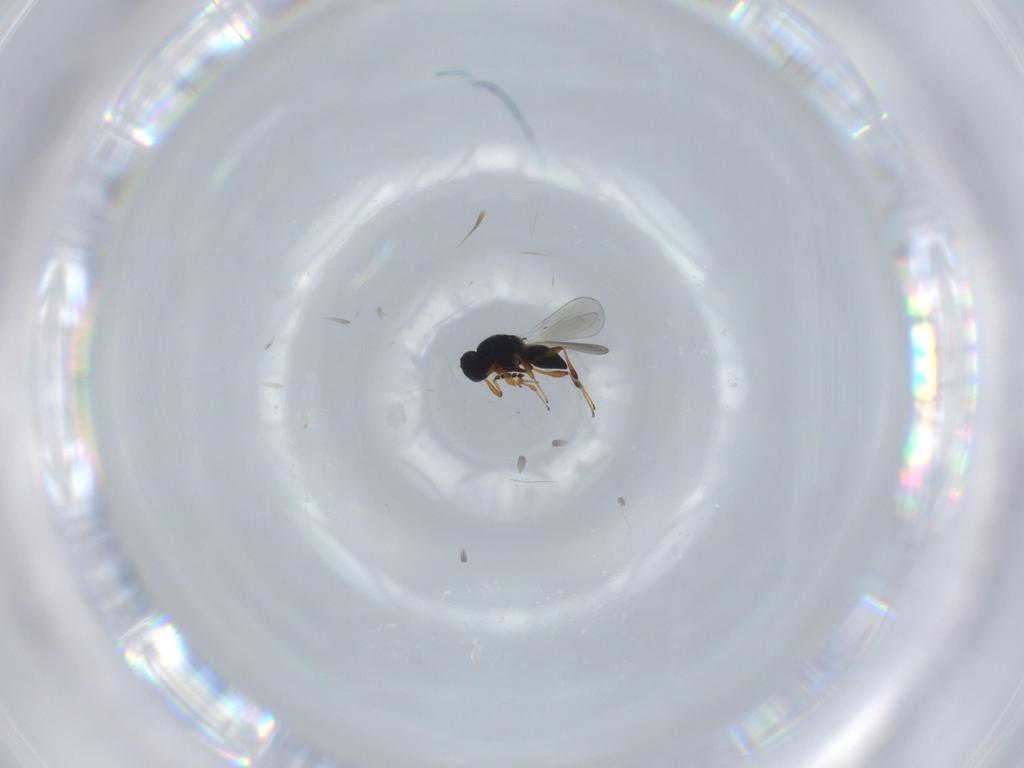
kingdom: Animalia
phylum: Arthropoda
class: Insecta
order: Hymenoptera
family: Platygastridae
